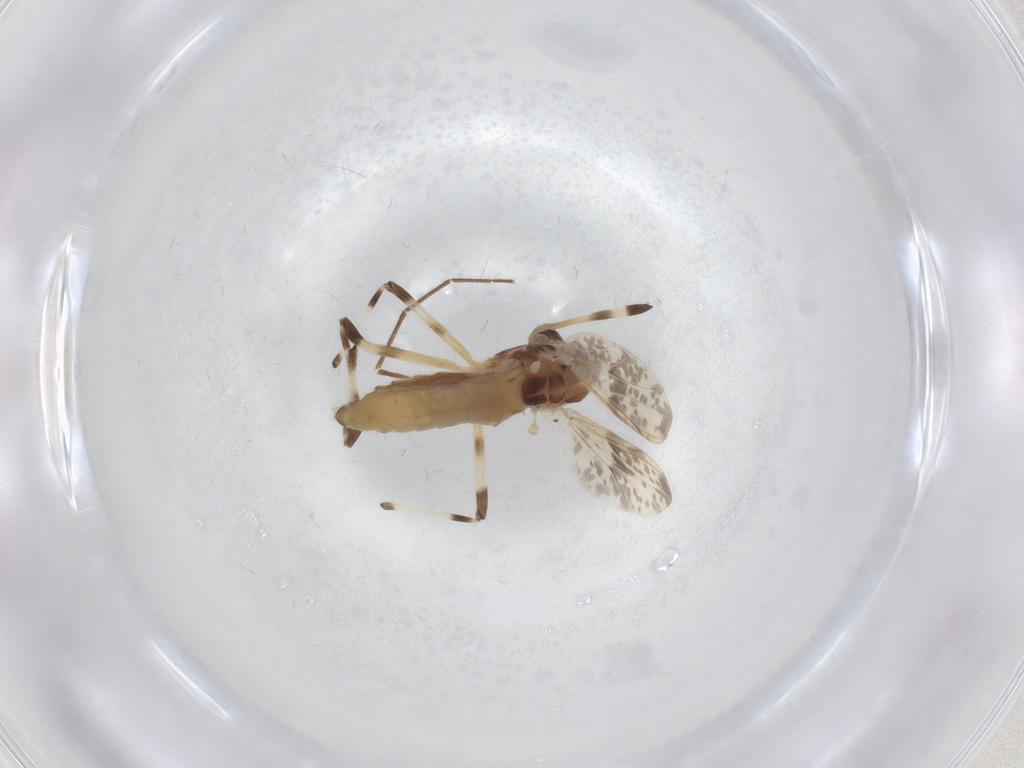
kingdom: Animalia
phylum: Arthropoda
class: Insecta
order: Diptera
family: Chironomidae
